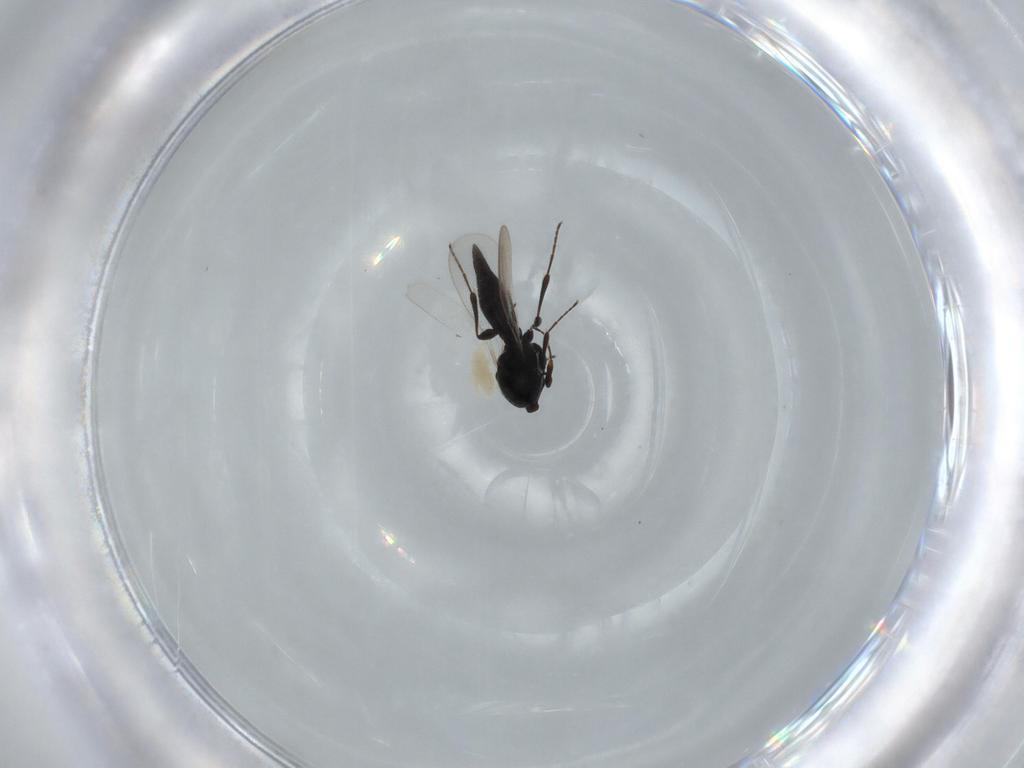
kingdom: Animalia
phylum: Arthropoda
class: Insecta
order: Hymenoptera
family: Platygastridae
